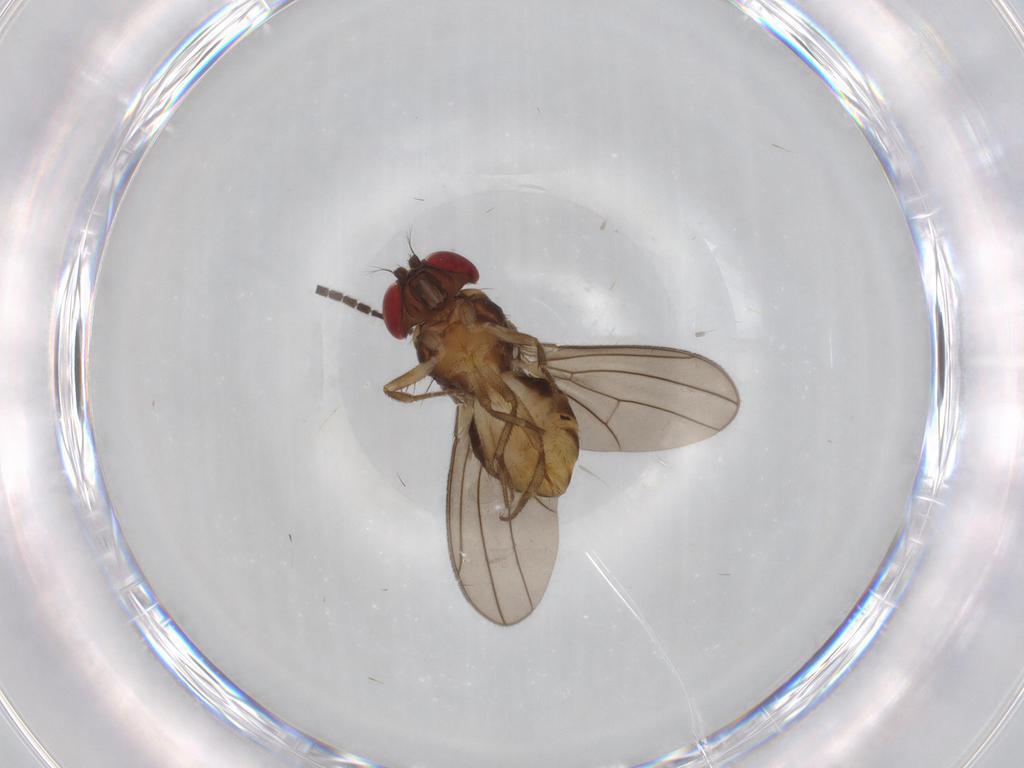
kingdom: Animalia
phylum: Arthropoda
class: Insecta
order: Diptera
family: Drosophilidae
